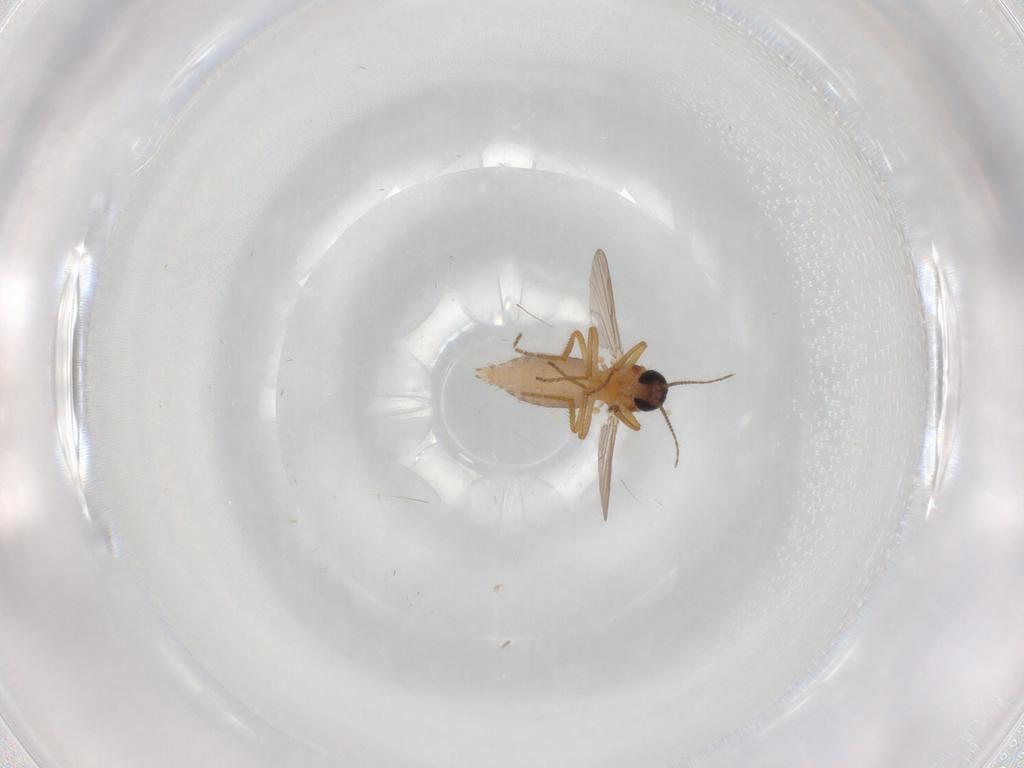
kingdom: Animalia
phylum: Arthropoda
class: Insecta
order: Diptera
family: Ceratopogonidae
